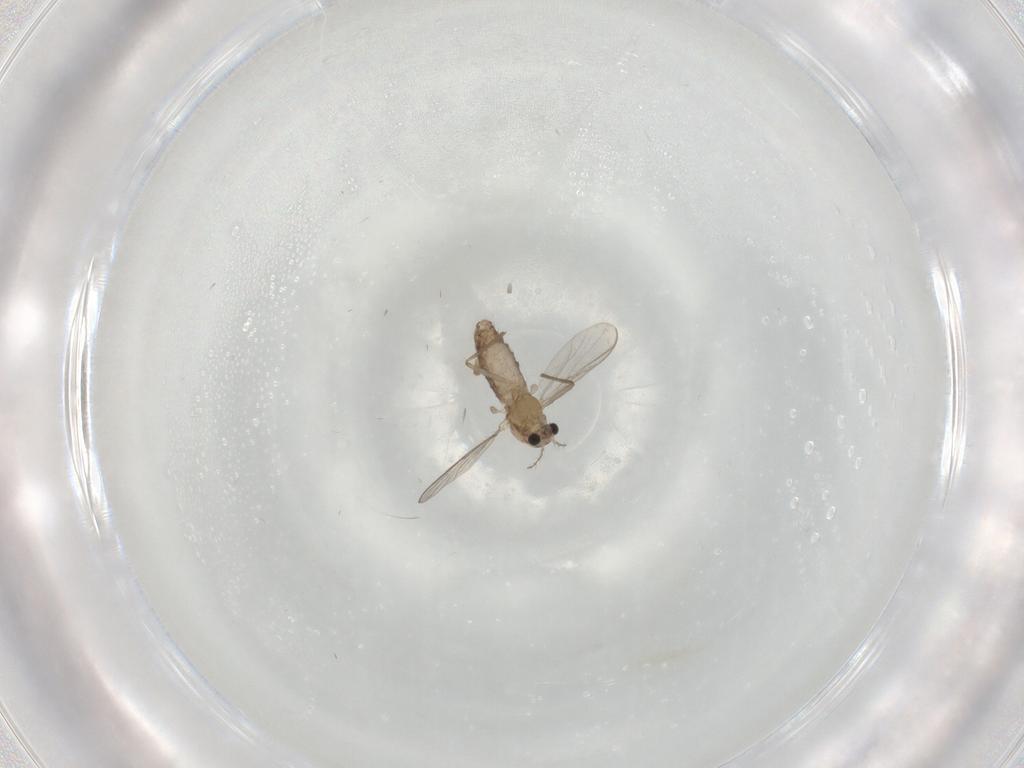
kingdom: Animalia
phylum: Arthropoda
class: Insecta
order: Diptera
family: Chironomidae
